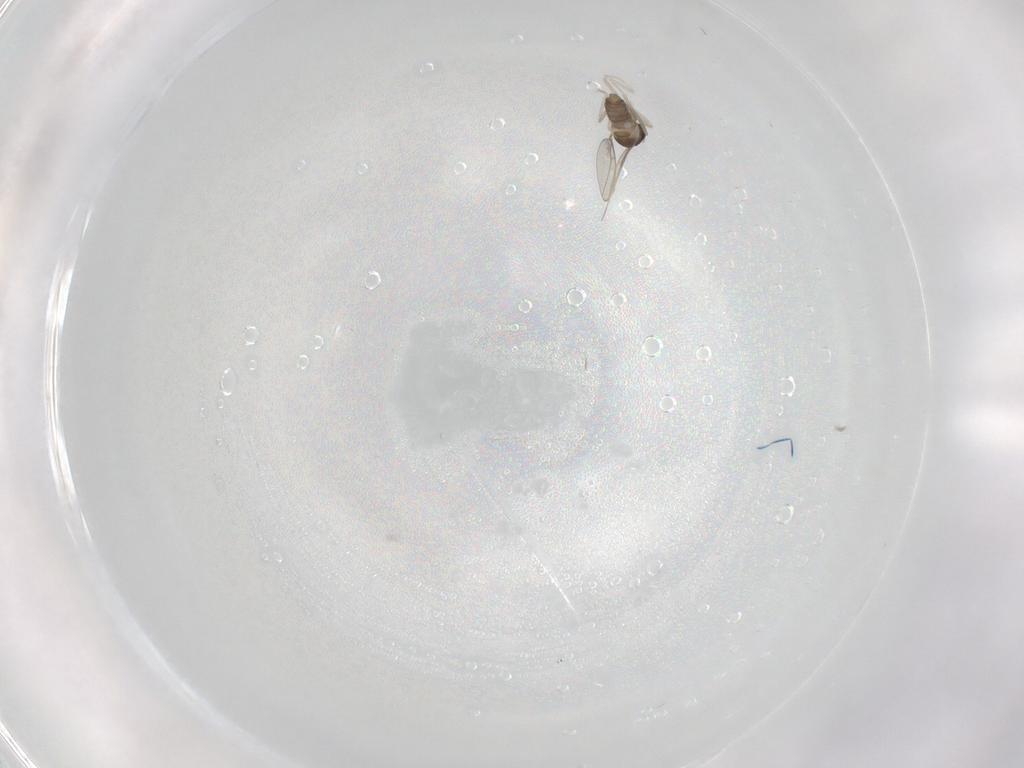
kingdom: Animalia
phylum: Arthropoda
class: Insecta
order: Diptera
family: Cecidomyiidae
